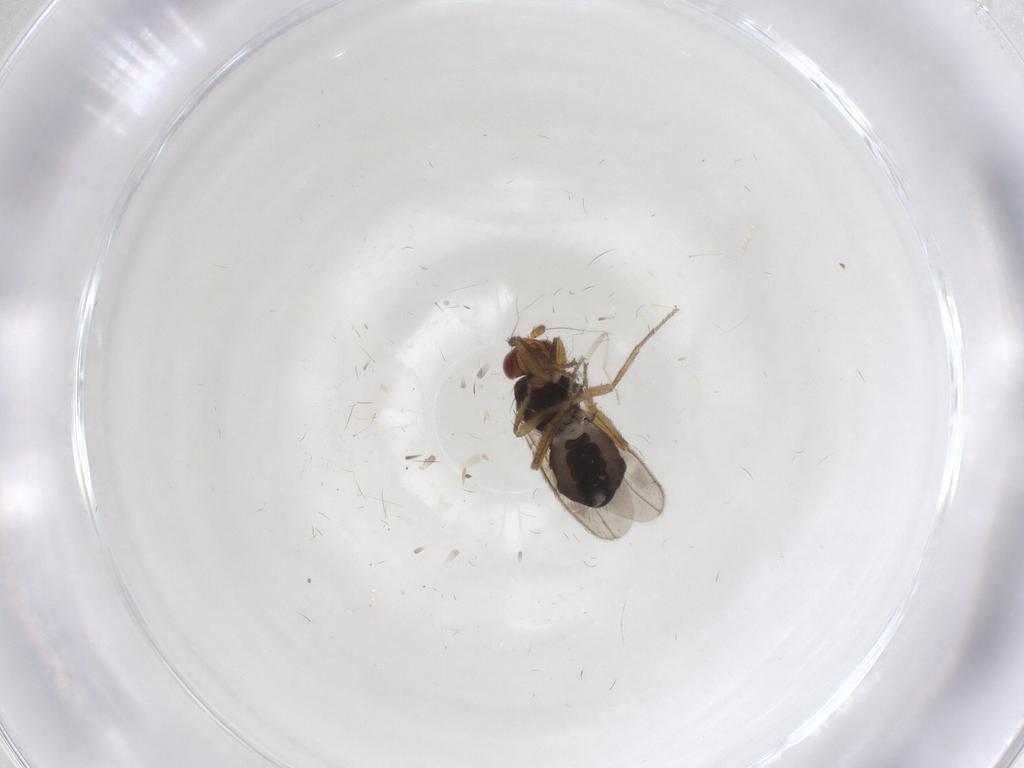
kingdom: Animalia
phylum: Arthropoda
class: Insecta
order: Diptera
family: Sphaeroceridae
